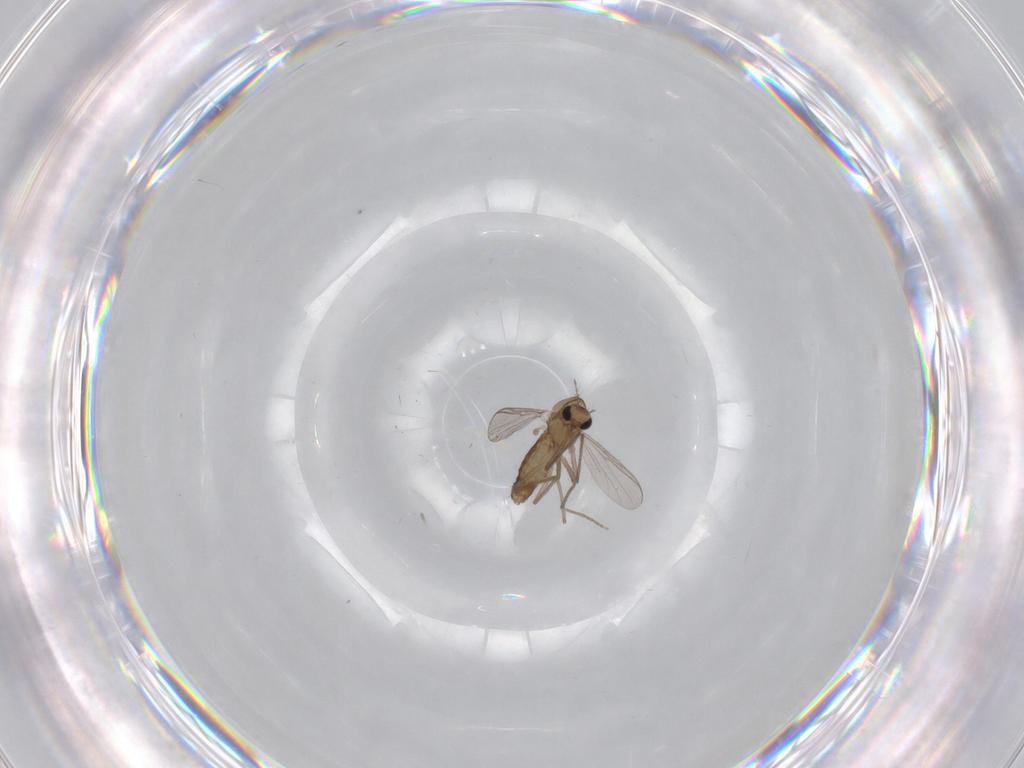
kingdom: Animalia
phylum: Arthropoda
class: Insecta
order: Diptera
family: Chironomidae
